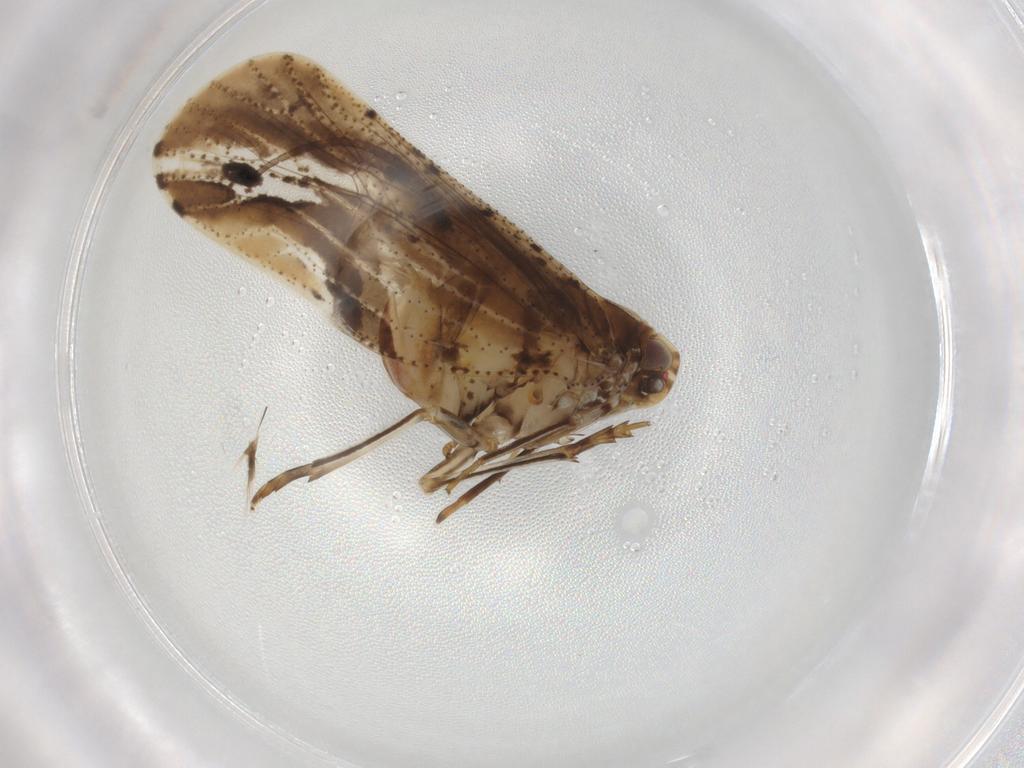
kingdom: Animalia
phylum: Arthropoda
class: Insecta
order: Hemiptera
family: Cixiidae
